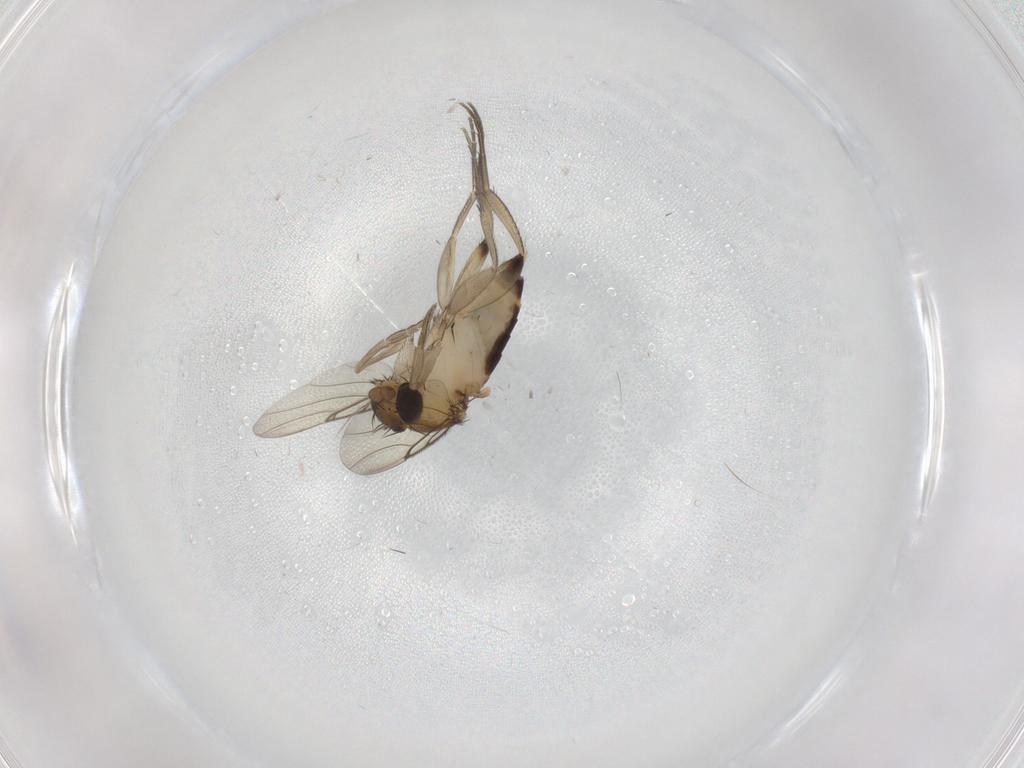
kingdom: Animalia
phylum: Arthropoda
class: Insecta
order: Diptera
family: Phoridae
